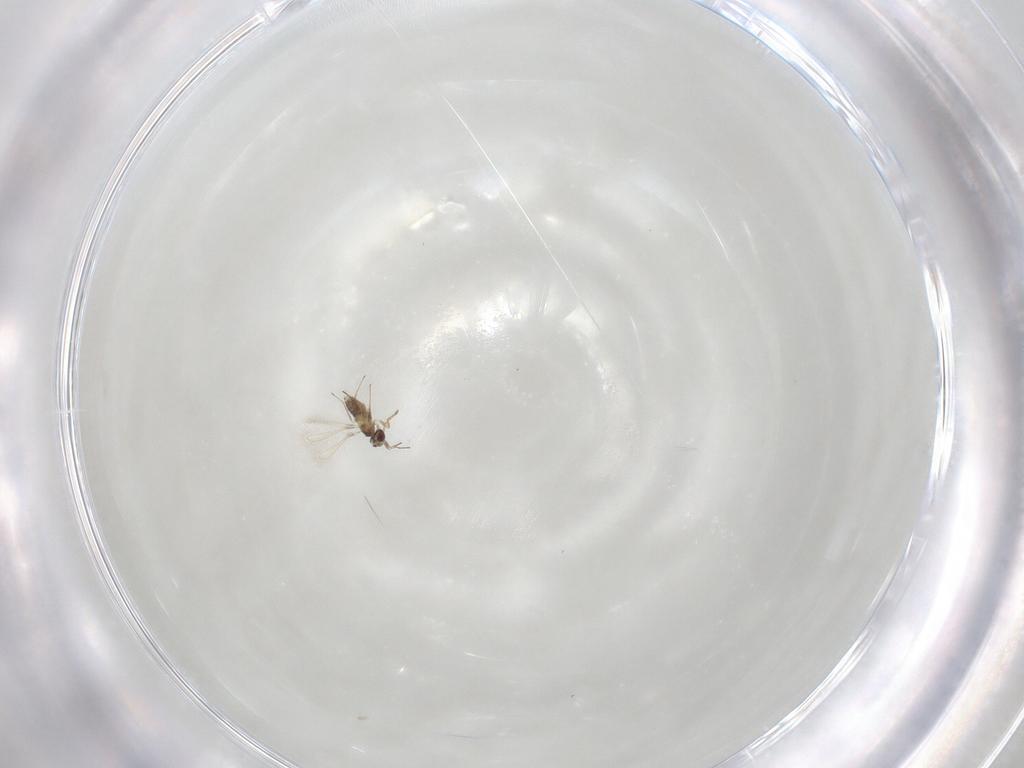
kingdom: Animalia
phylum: Arthropoda
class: Insecta
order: Hymenoptera
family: Mymaridae
